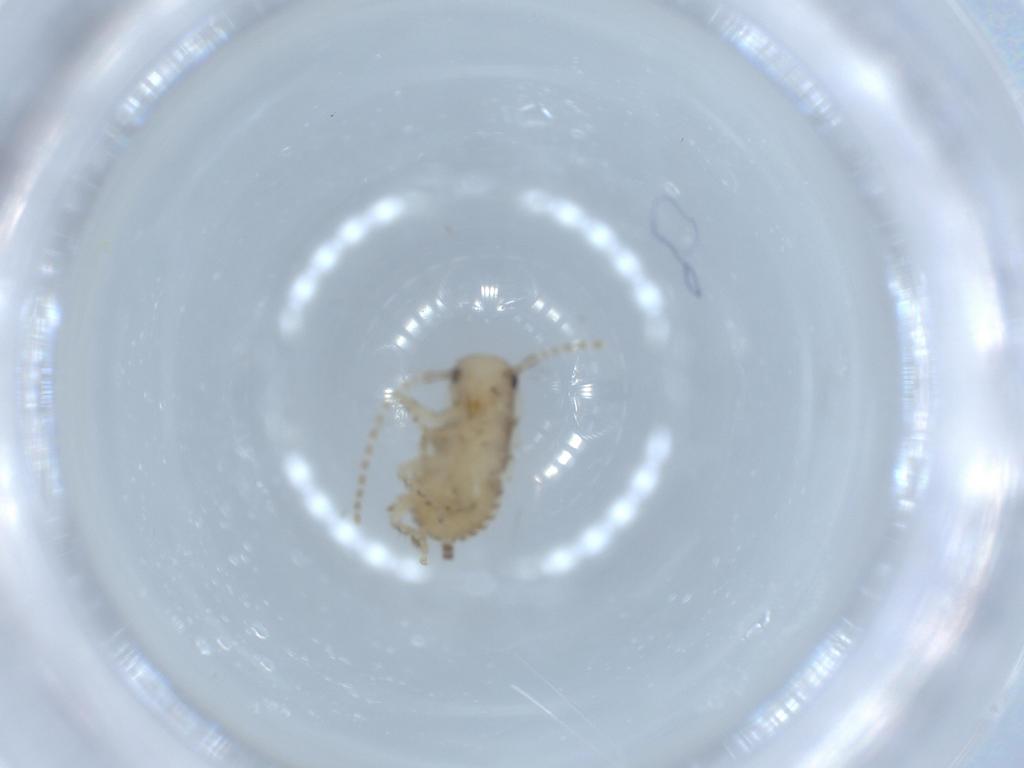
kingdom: Animalia
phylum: Arthropoda
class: Insecta
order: Blattodea
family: Ectobiidae
